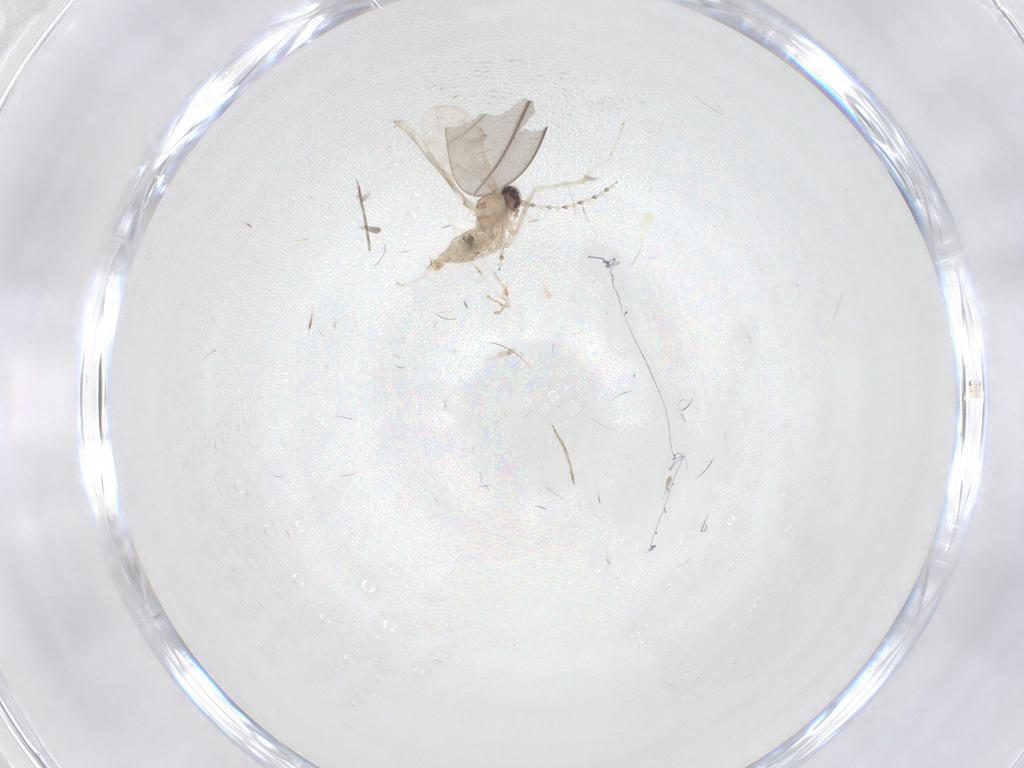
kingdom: Animalia
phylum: Arthropoda
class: Insecta
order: Diptera
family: Cecidomyiidae
